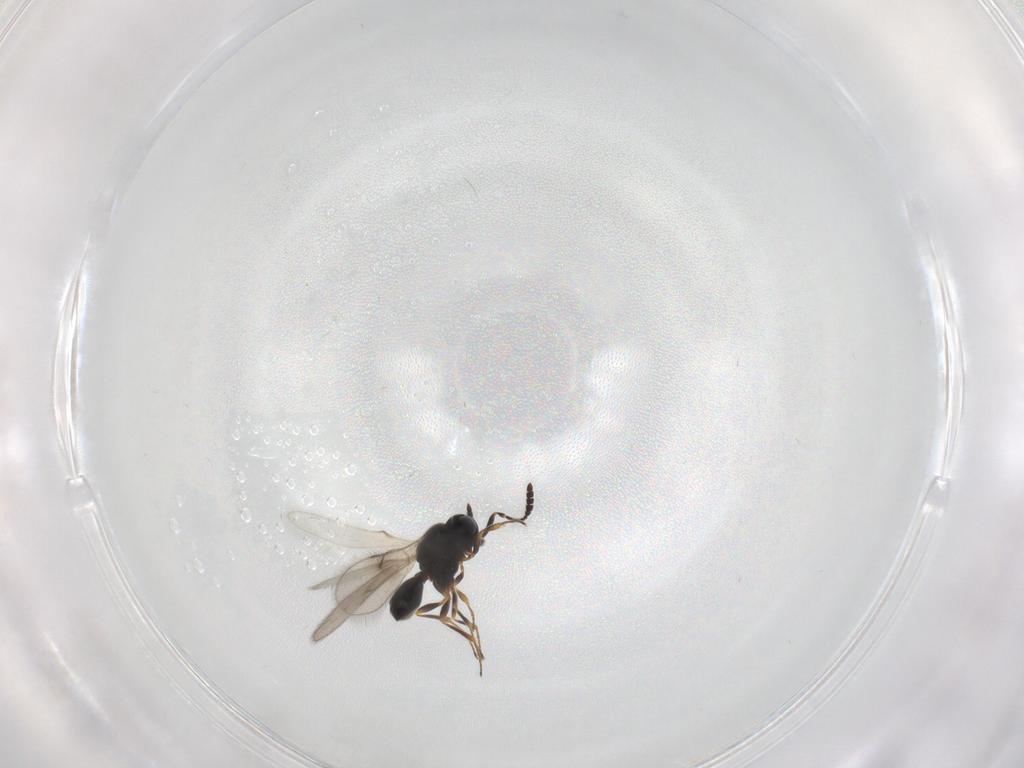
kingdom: Animalia
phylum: Arthropoda
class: Insecta
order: Hymenoptera
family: Scelionidae
